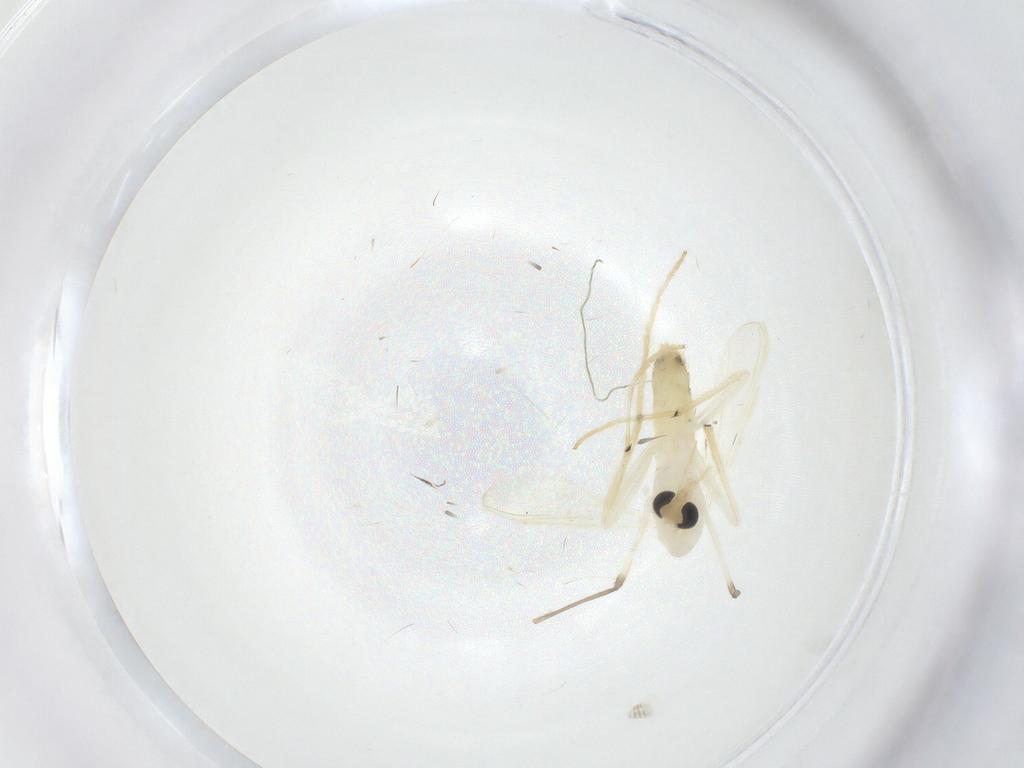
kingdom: Animalia
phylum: Arthropoda
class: Insecta
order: Diptera
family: Chironomidae
